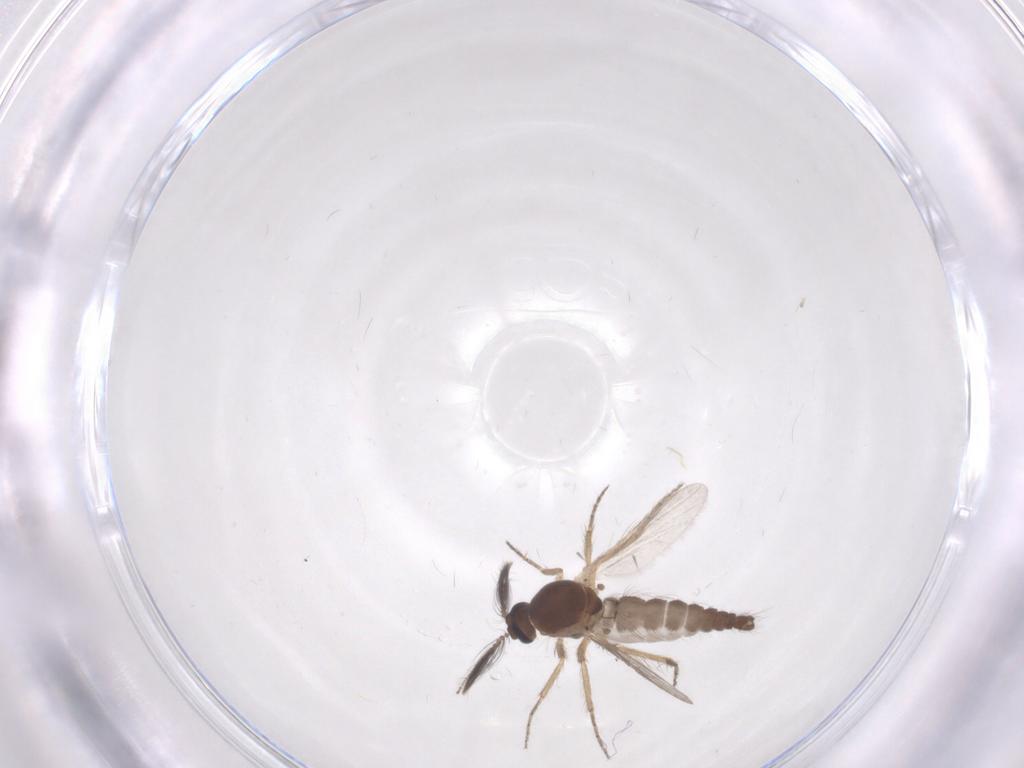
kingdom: Animalia
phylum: Arthropoda
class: Insecta
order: Diptera
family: Ceratopogonidae
